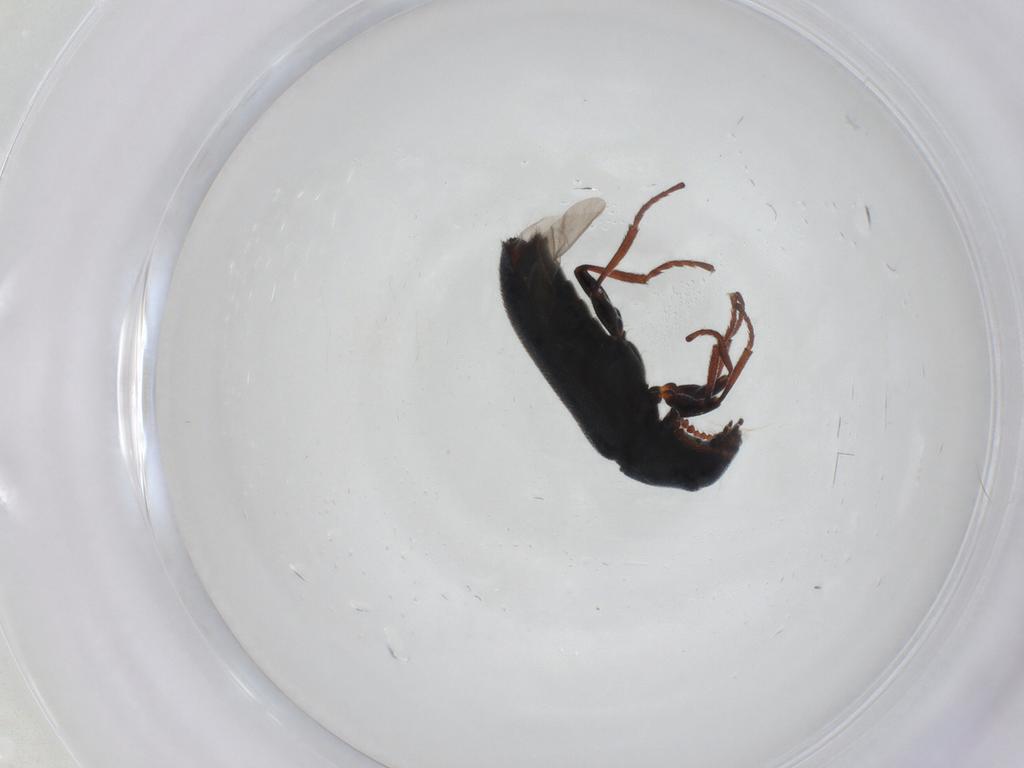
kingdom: Animalia
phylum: Arthropoda
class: Insecta
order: Coleoptera
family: Melyridae
